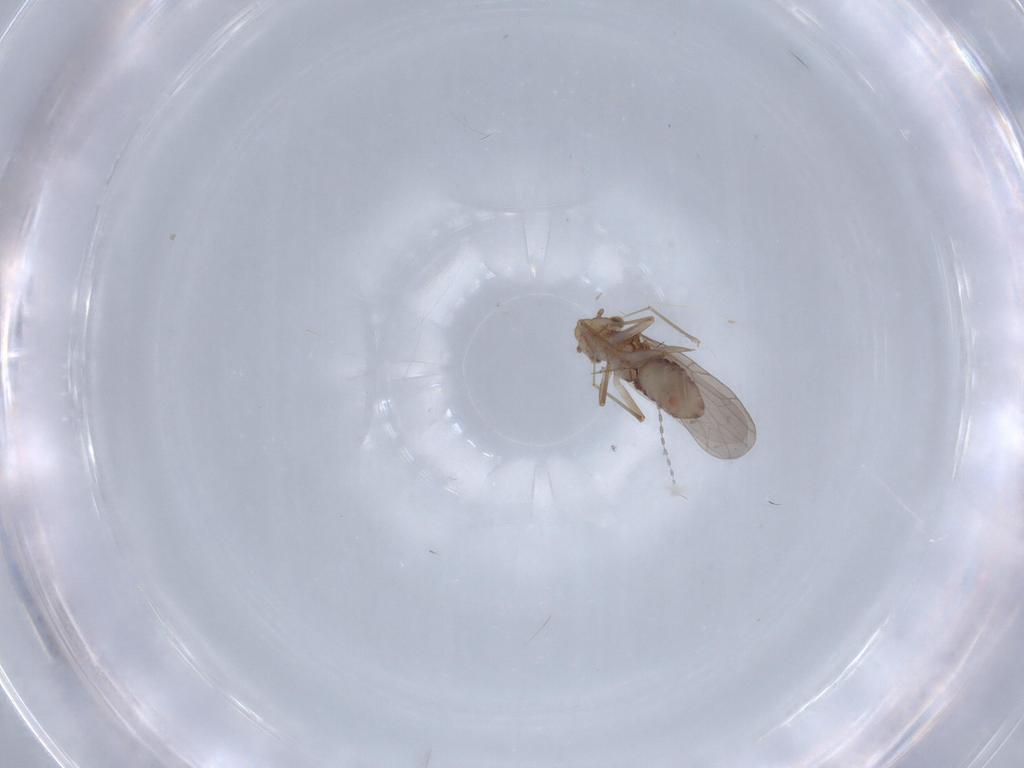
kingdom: Animalia
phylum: Arthropoda
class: Insecta
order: Psocodea
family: Lepidopsocidae
